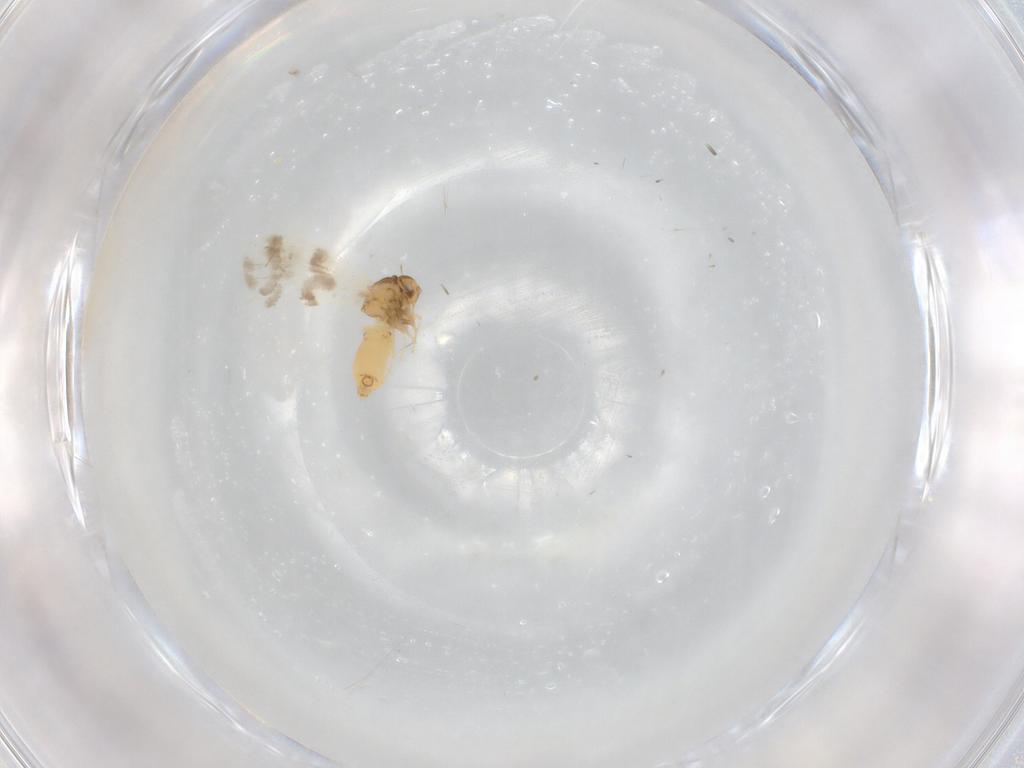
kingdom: Animalia
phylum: Arthropoda
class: Insecta
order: Hemiptera
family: Aleyrodidae
